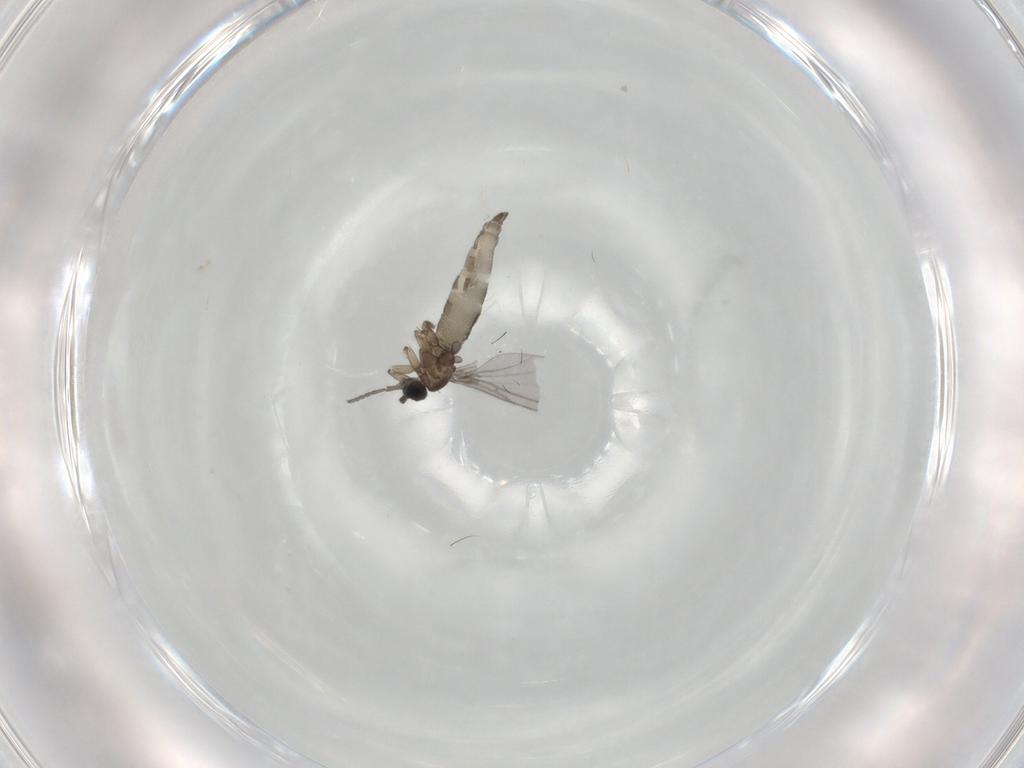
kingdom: Animalia
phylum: Arthropoda
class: Insecta
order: Diptera
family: Sciaridae
